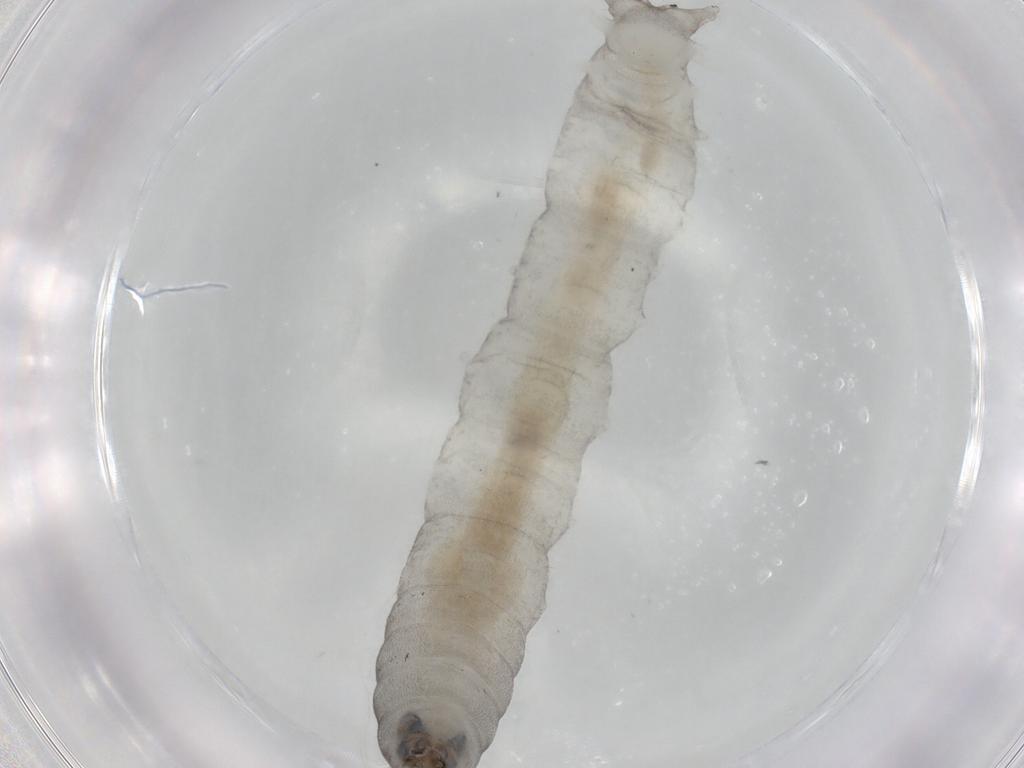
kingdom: Animalia
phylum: Arthropoda
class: Insecta
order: Diptera
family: Dolichopodidae
